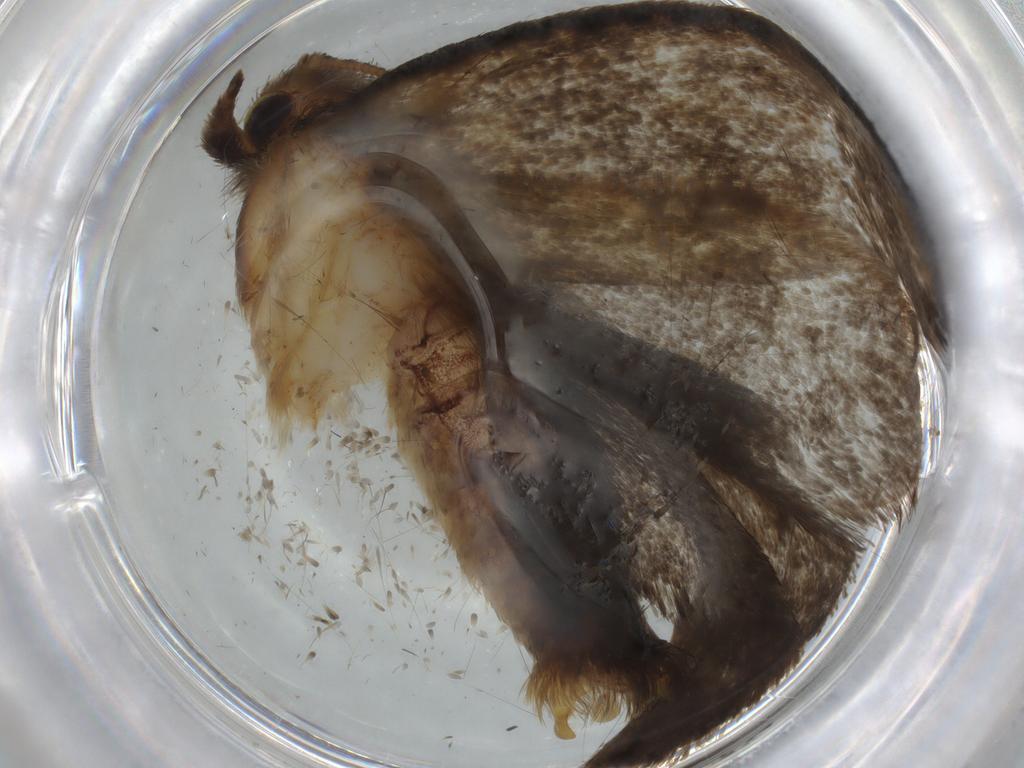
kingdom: Animalia
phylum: Arthropoda
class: Insecta
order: Lepidoptera
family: Tineidae
